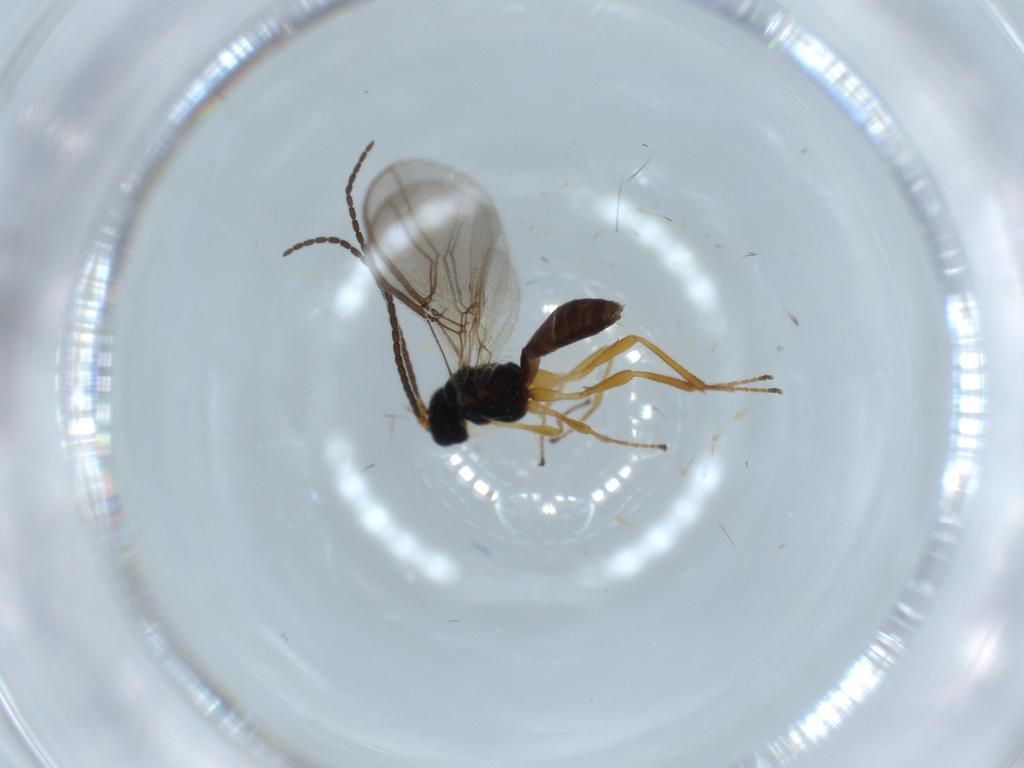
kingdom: Animalia
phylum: Arthropoda
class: Insecta
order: Hymenoptera
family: Braconidae
